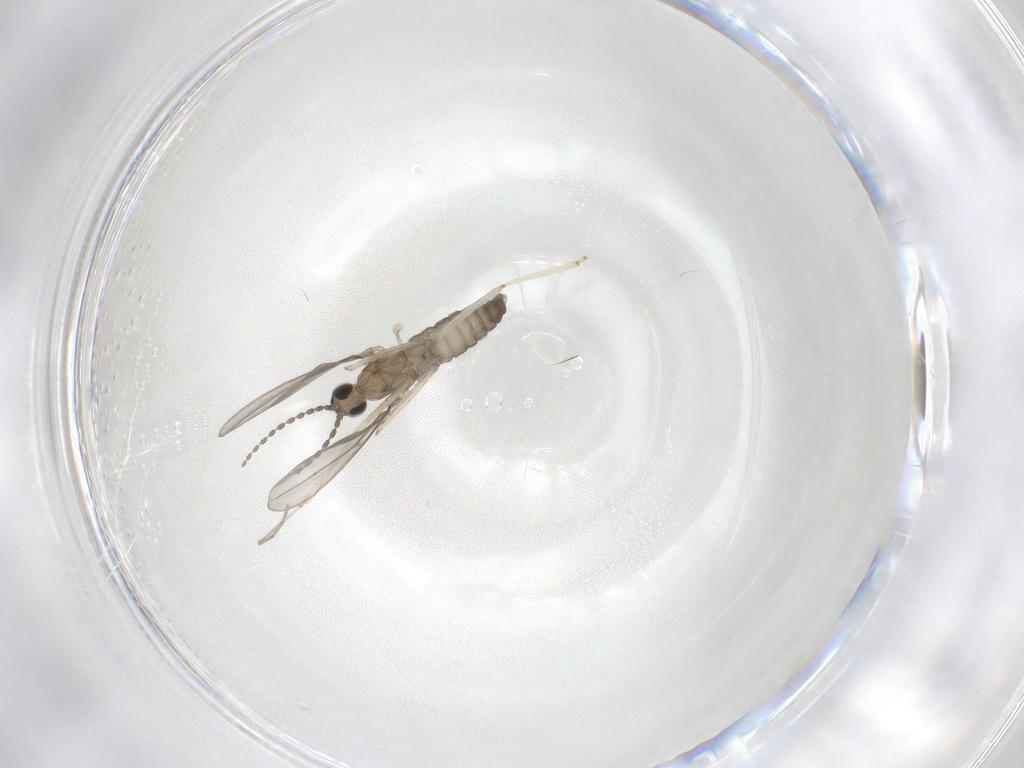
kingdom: Animalia
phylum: Arthropoda
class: Insecta
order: Diptera
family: Cecidomyiidae
